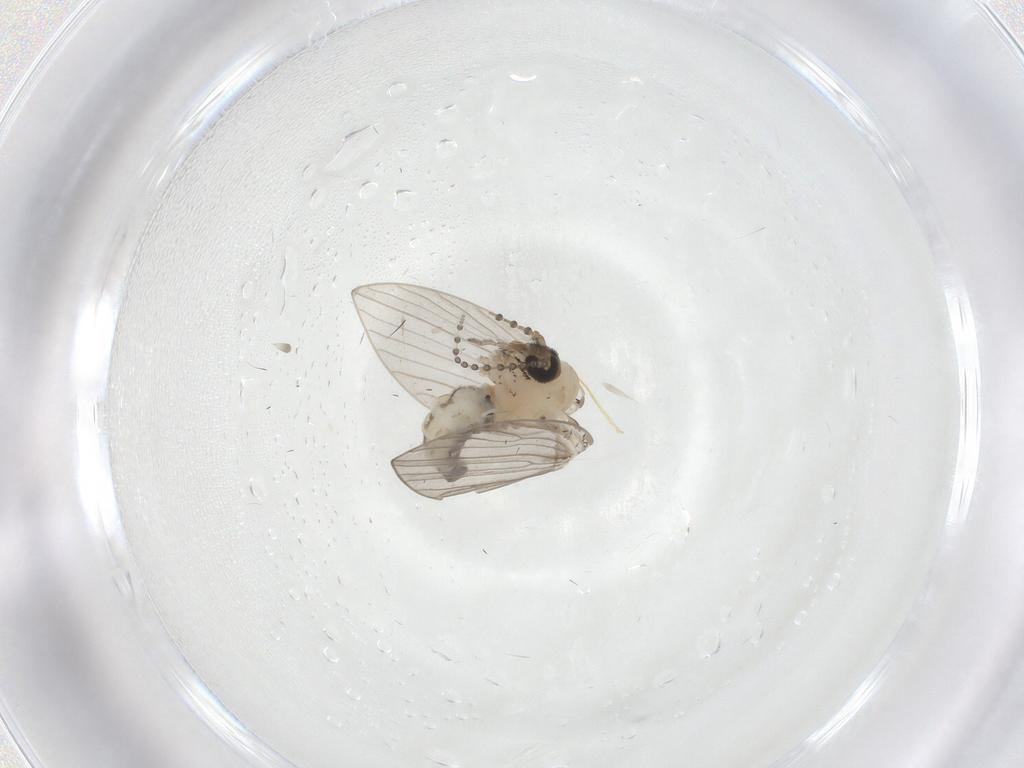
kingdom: Animalia
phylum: Arthropoda
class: Insecta
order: Diptera
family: Psychodidae
